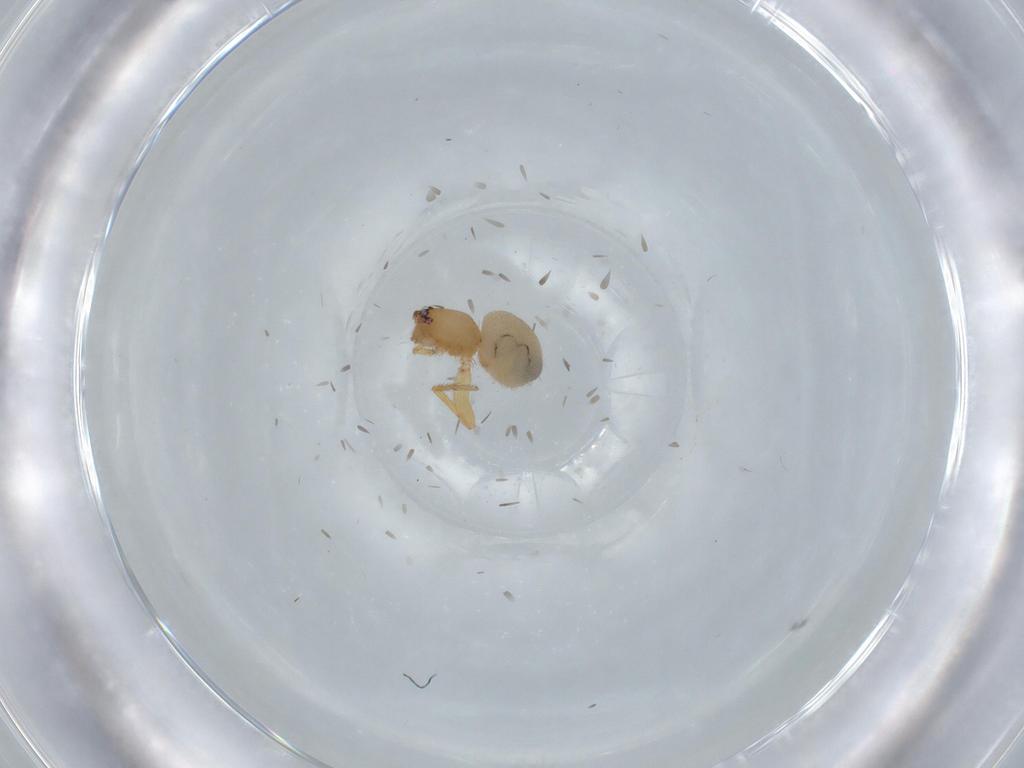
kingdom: Animalia
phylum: Arthropoda
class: Arachnida
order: Araneae
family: Oonopidae
